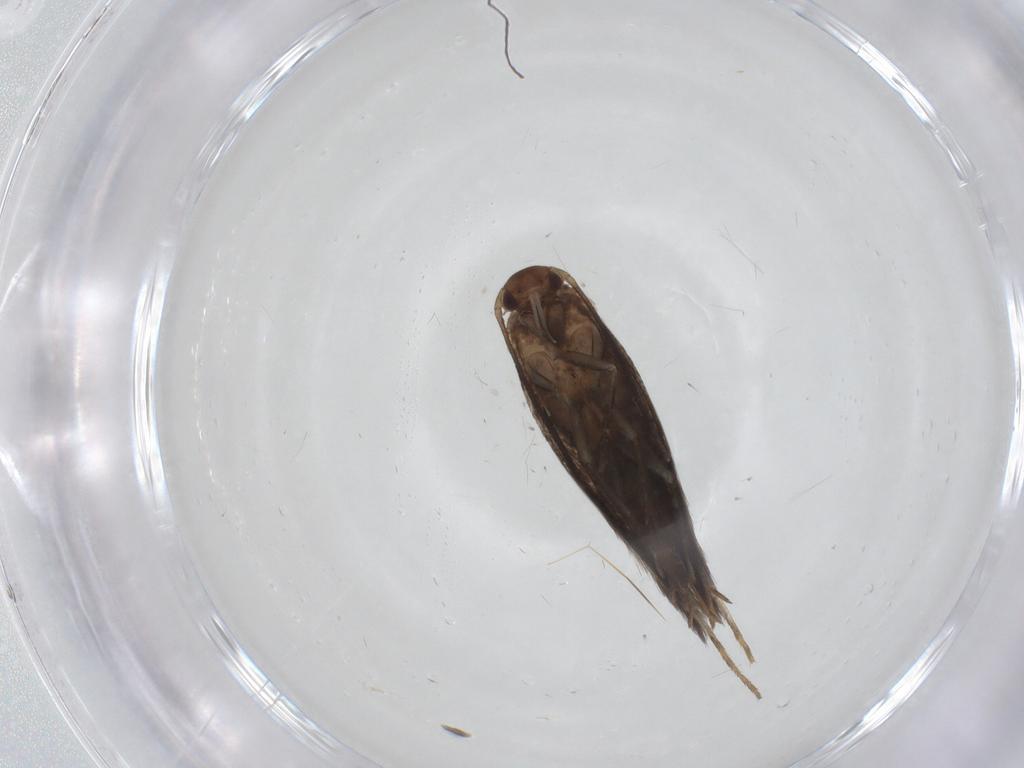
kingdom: Animalia
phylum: Arthropoda
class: Insecta
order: Lepidoptera
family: Elachistidae
